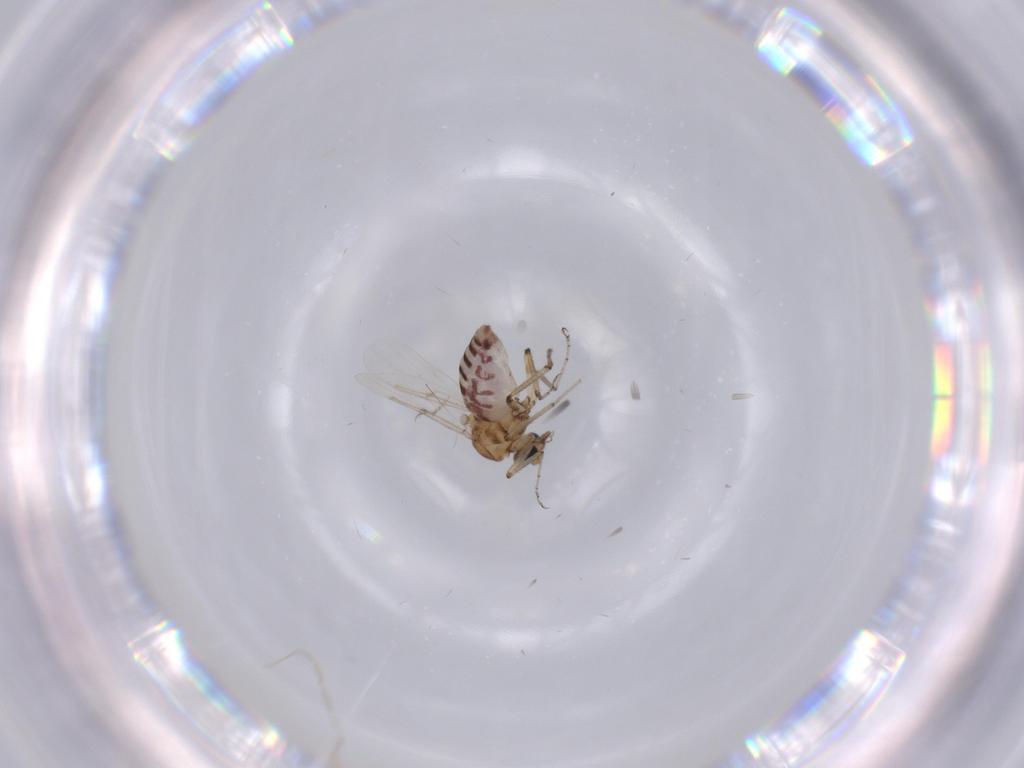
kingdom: Animalia
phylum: Arthropoda
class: Insecta
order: Diptera
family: Ceratopogonidae
